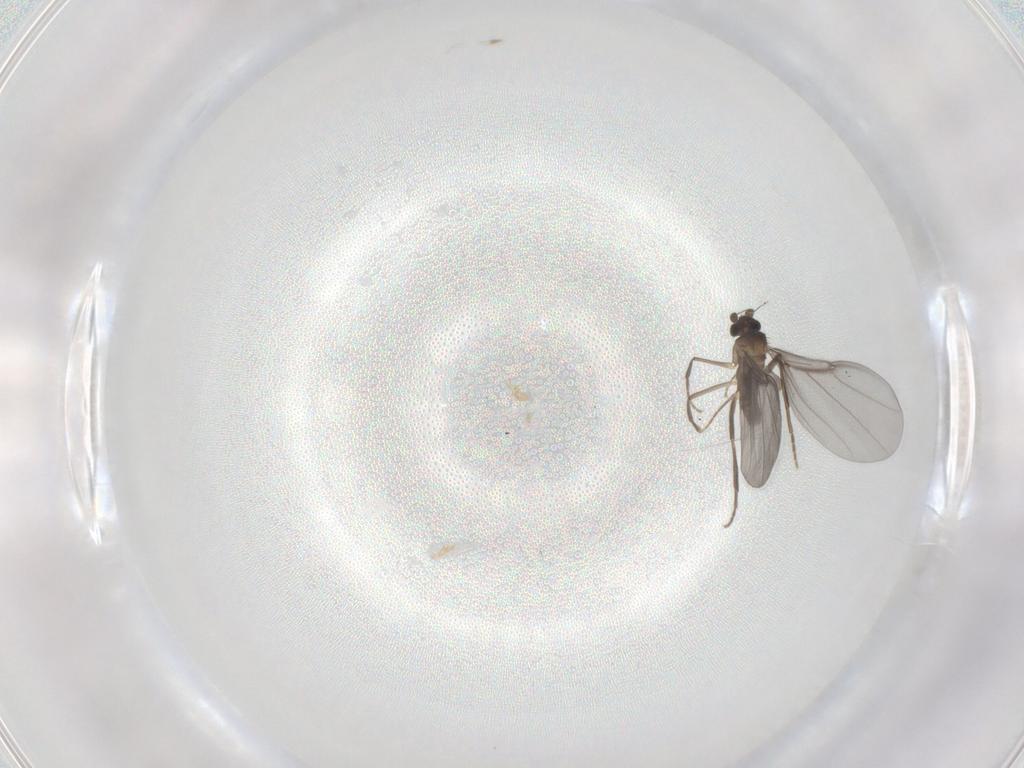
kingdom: Animalia
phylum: Arthropoda
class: Insecta
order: Diptera
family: Phoridae
